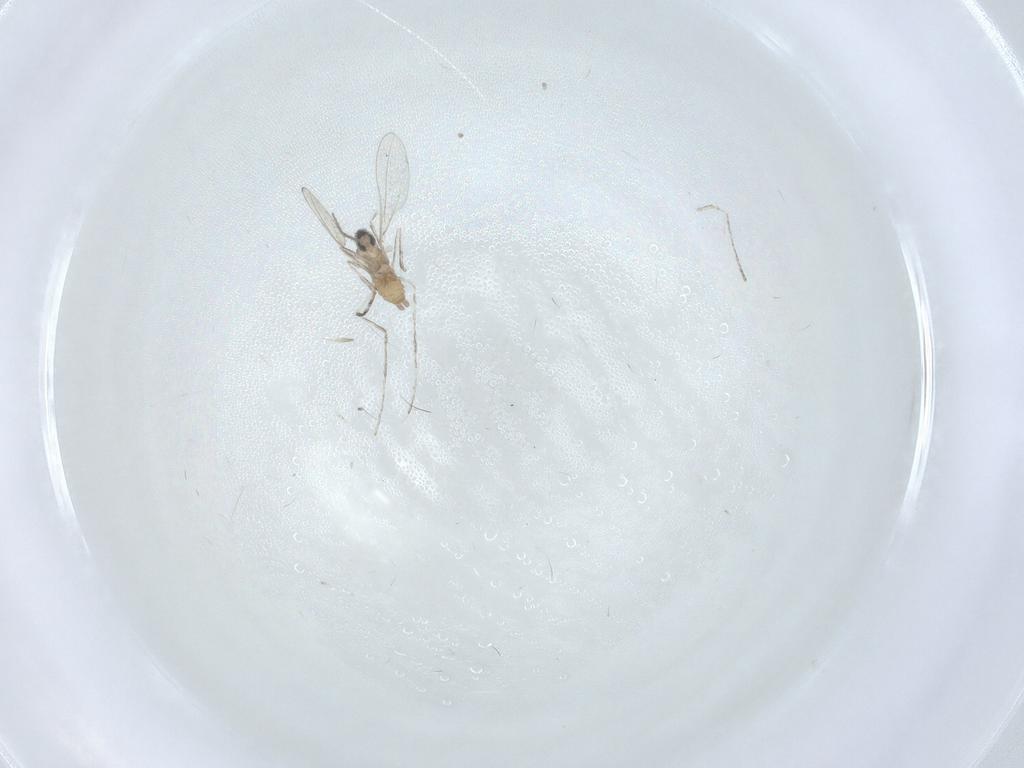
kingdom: Animalia
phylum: Arthropoda
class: Insecta
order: Diptera
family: Cecidomyiidae
